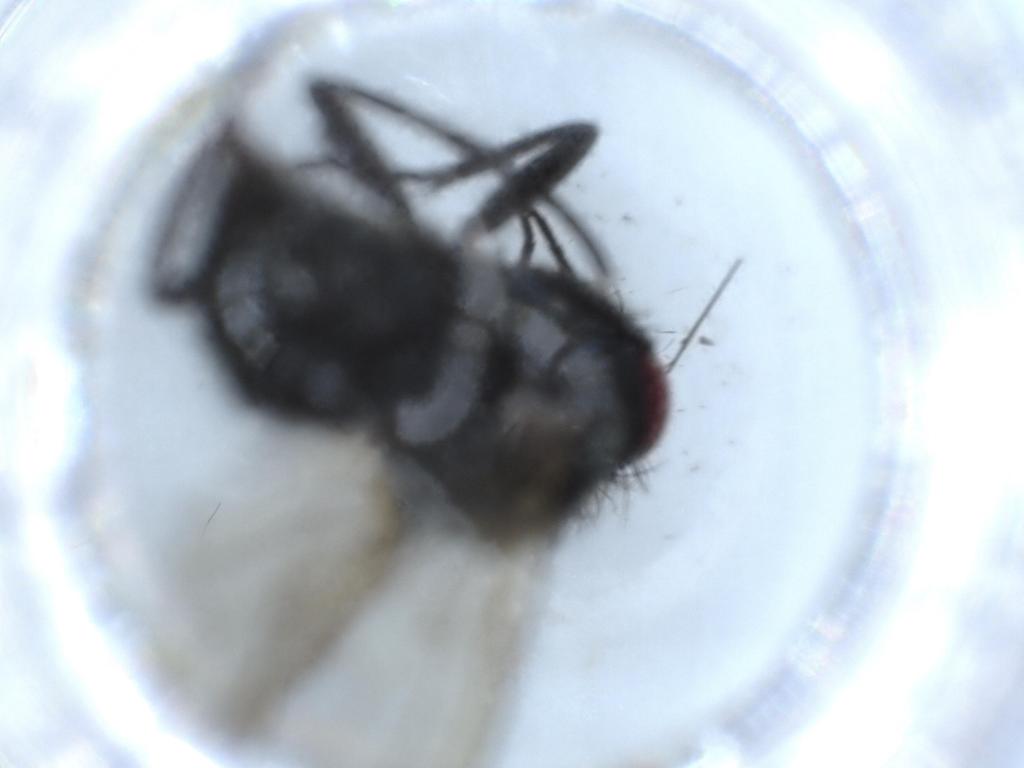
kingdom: Animalia
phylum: Arthropoda
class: Insecta
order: Diptera
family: Anthomyiidae
